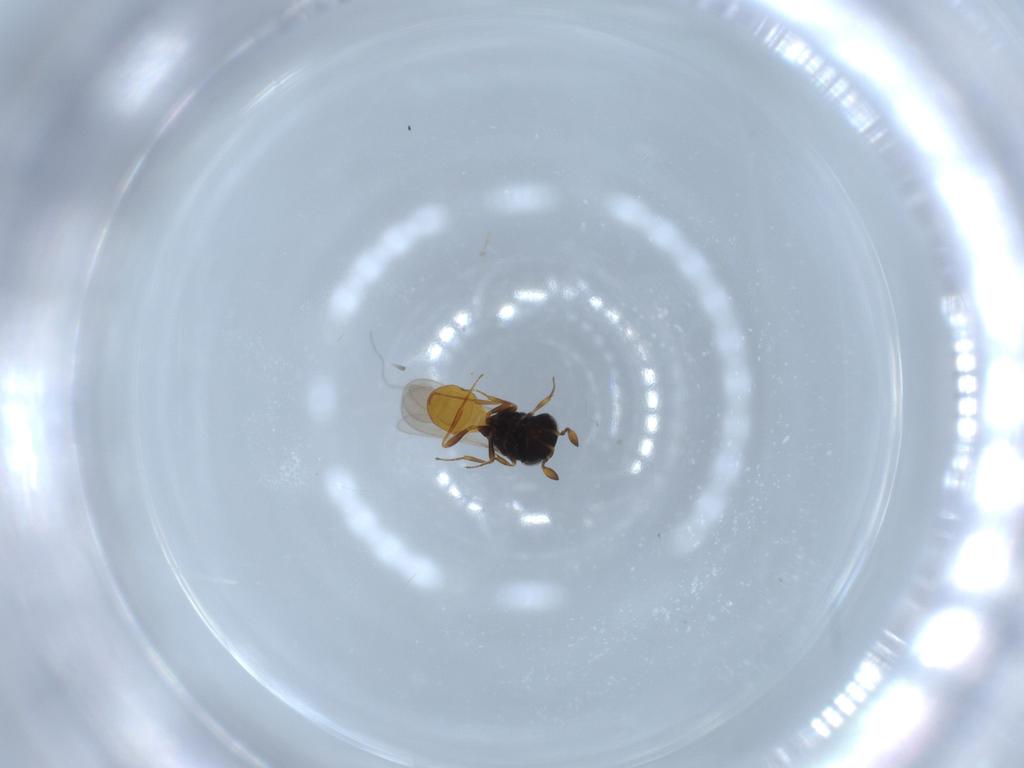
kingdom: Animalia
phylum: Arthropoda
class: Insecta
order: Hymenoptera
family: Scelionidae
